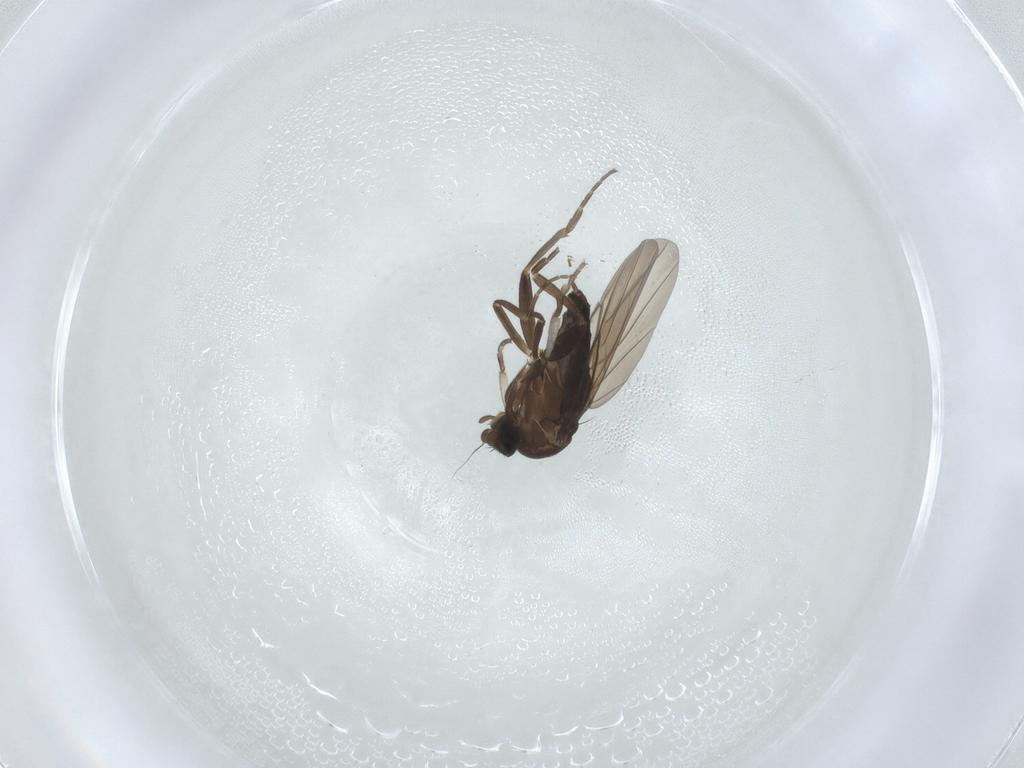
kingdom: Animalia
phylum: Arthropoda
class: Insecta
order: Diptera
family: Phoridae
